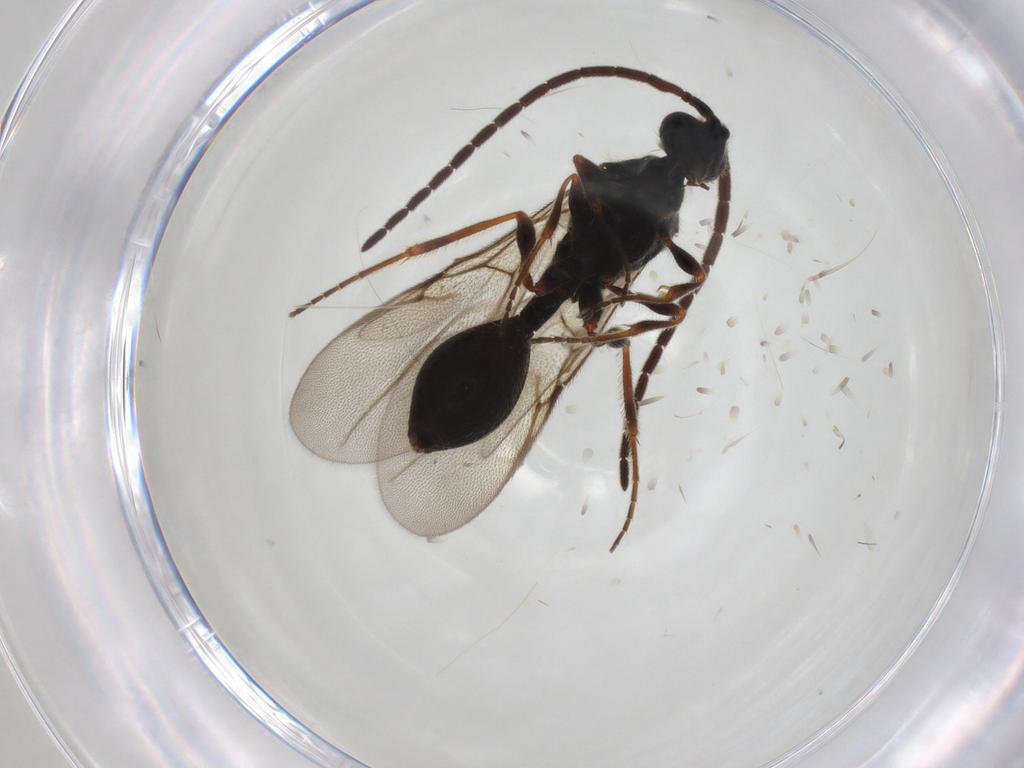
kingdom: Animalia
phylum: Arthropoda
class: Insecta
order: Hymenoptera
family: Diapriidae
